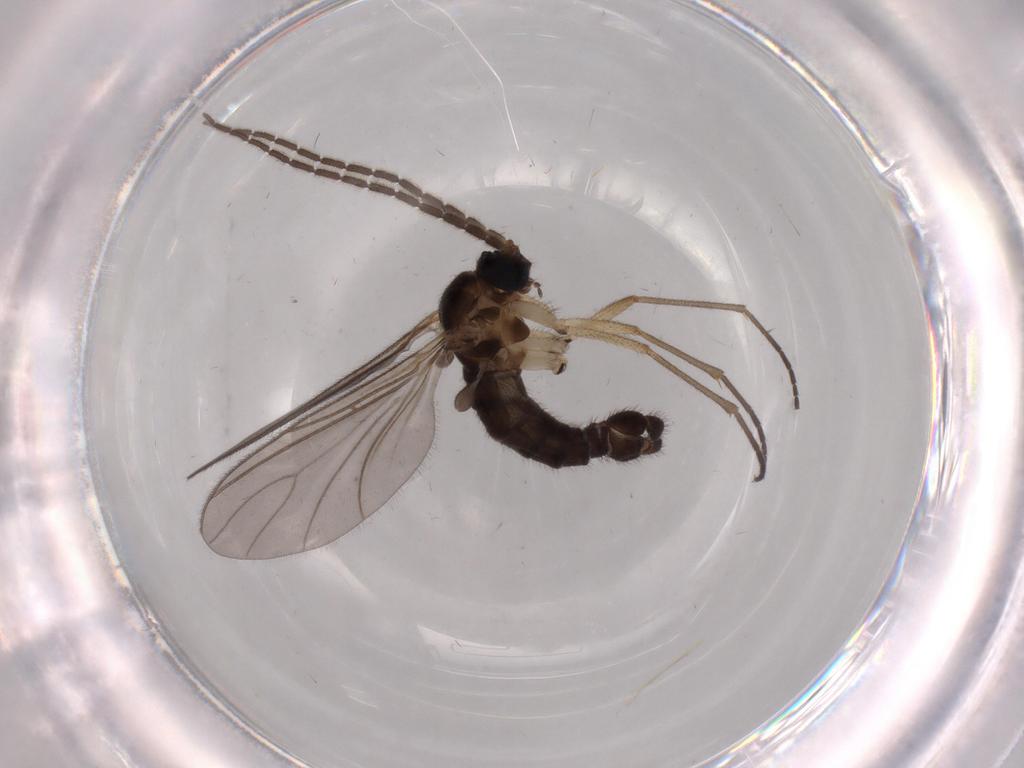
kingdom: Animalia
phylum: Arthropoda
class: Insecta
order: Diptera
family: Sciaridae
